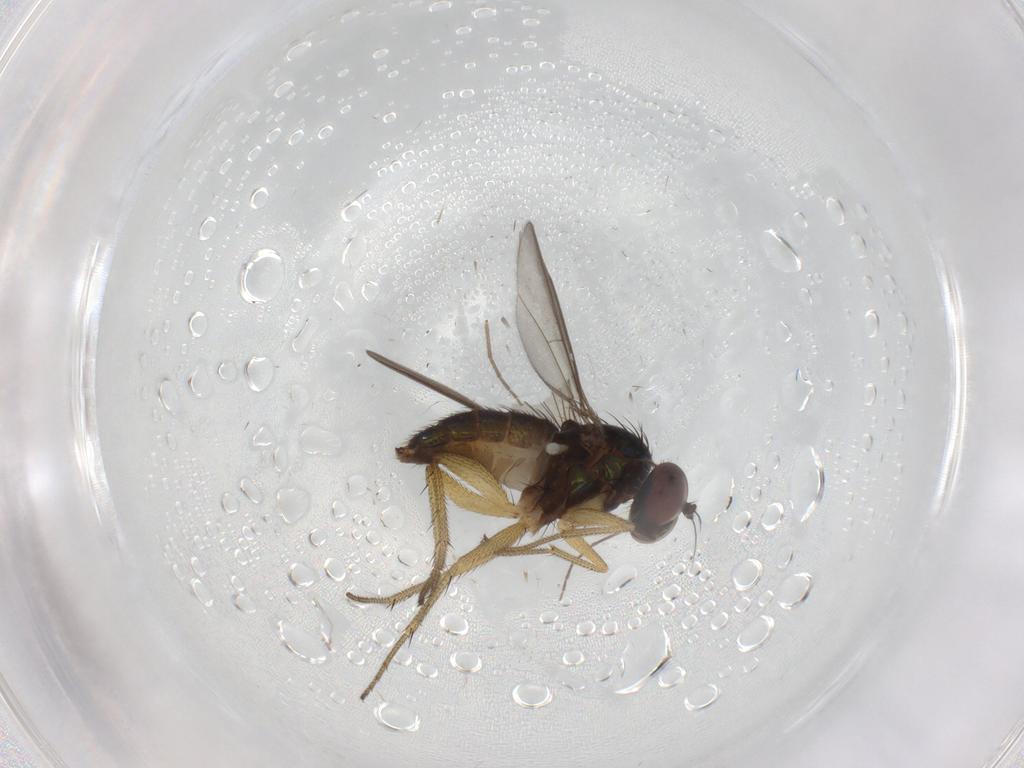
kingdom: Animalia
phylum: Arthropoda
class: Insecta
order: Diptera
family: Dolichopodidae
